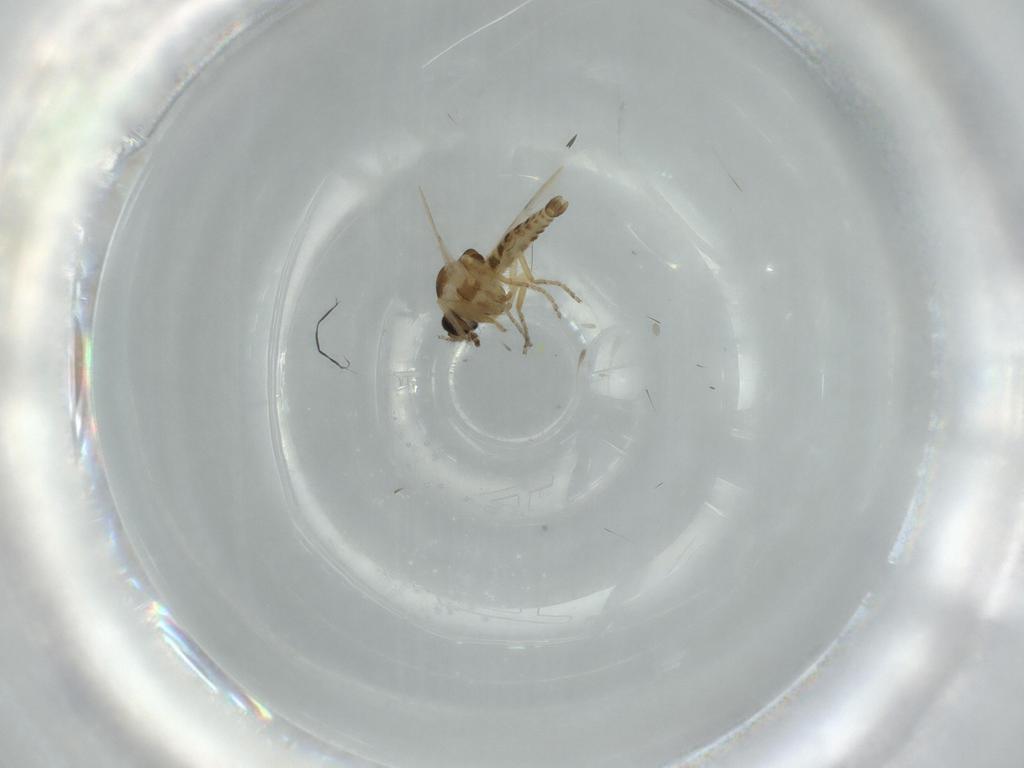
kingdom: Animalia
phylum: Arthropoda
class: Insecta
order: Diptera
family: Ceratopogonidae
